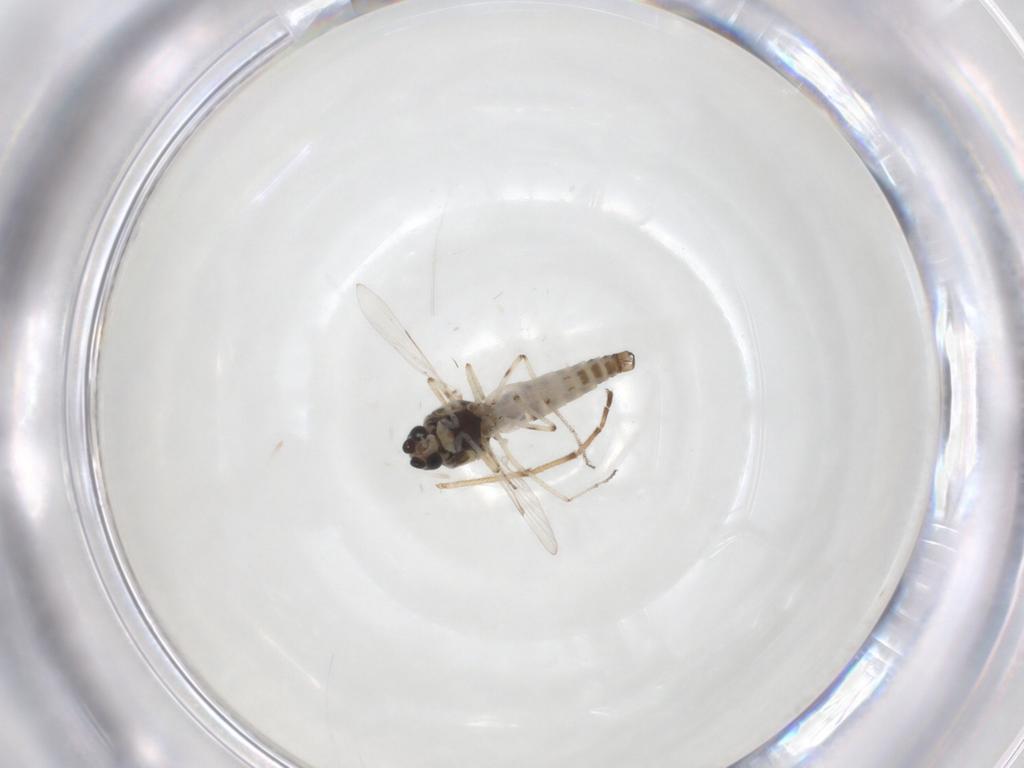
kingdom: Animalia
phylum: Arthropoda
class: Insecta
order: Diptera
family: Ceratopogonidae
